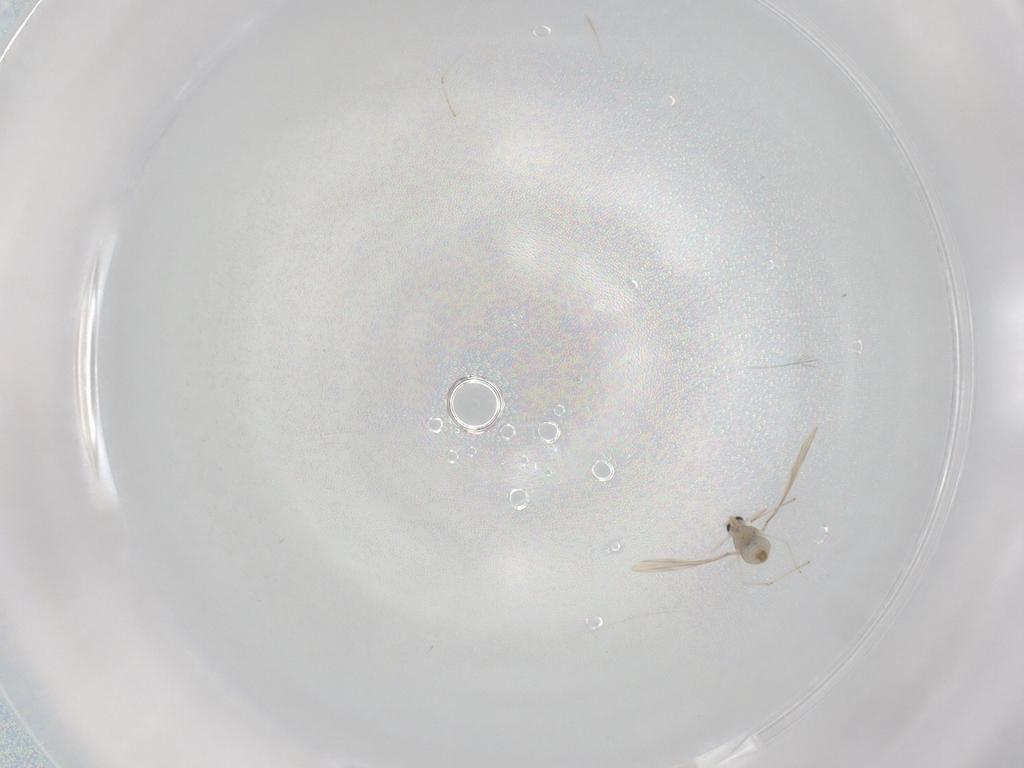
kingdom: Animalia
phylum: Arthropoda
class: Insecta
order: Diptera
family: Cecidomyiidae
